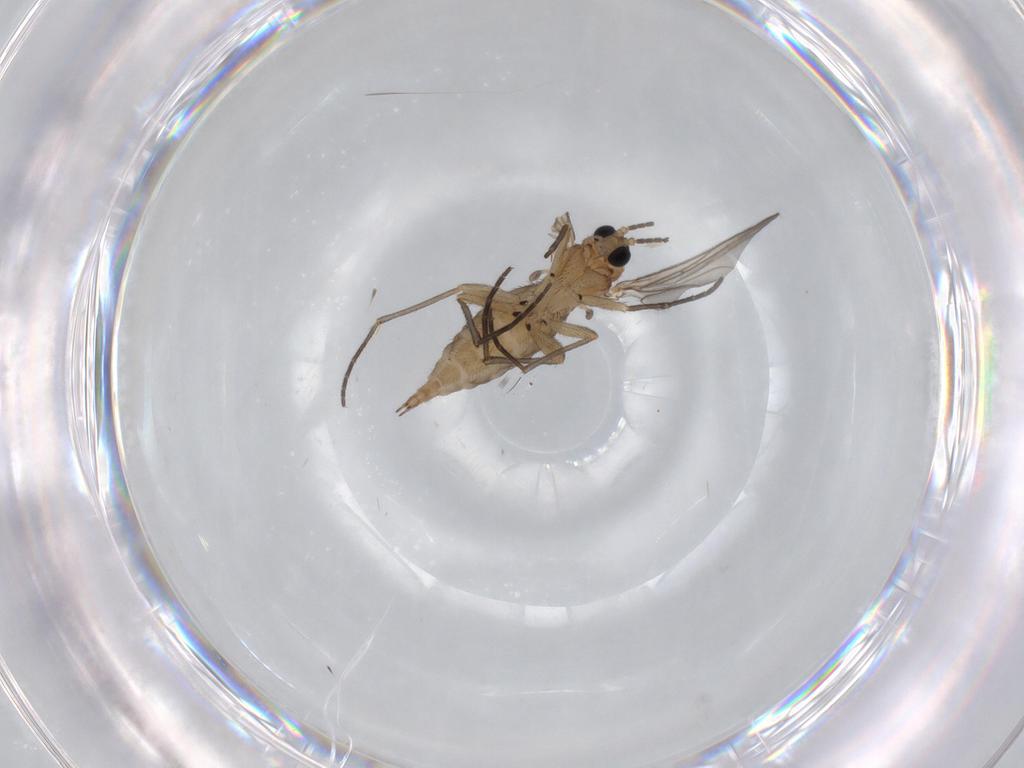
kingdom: Animalia
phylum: Arthropoda
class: Insecta
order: Diptera
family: Sciaridae
